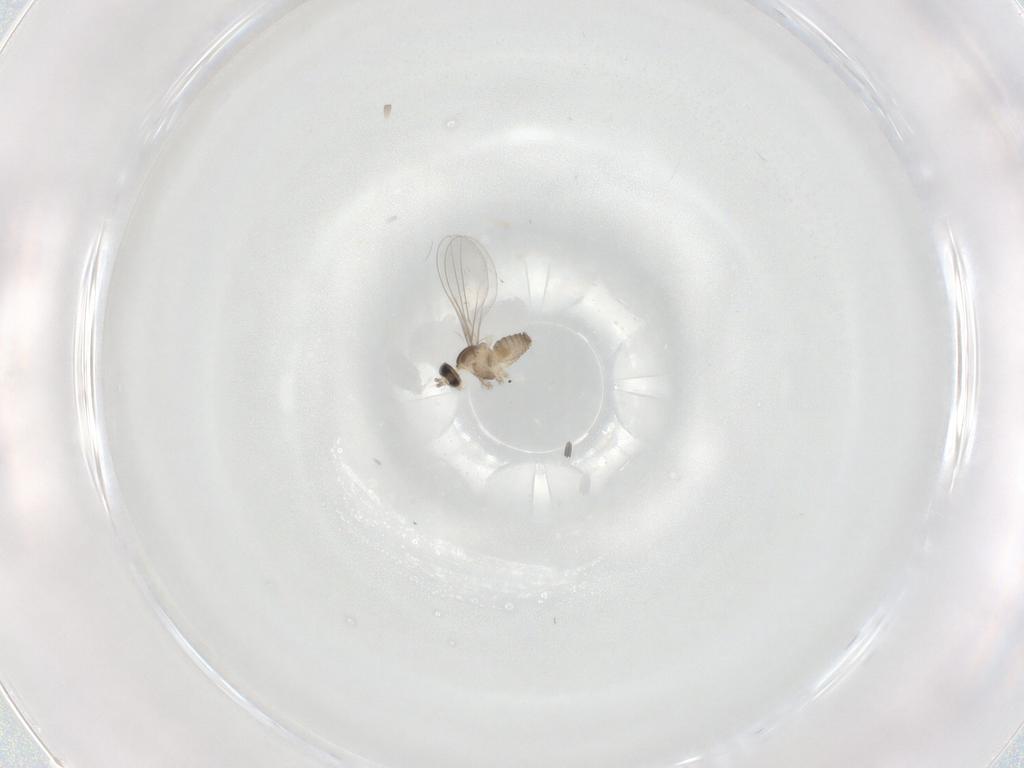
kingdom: Animalia
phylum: Arthropoda
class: Insecta
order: Diptera
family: Cecidomyiidae
